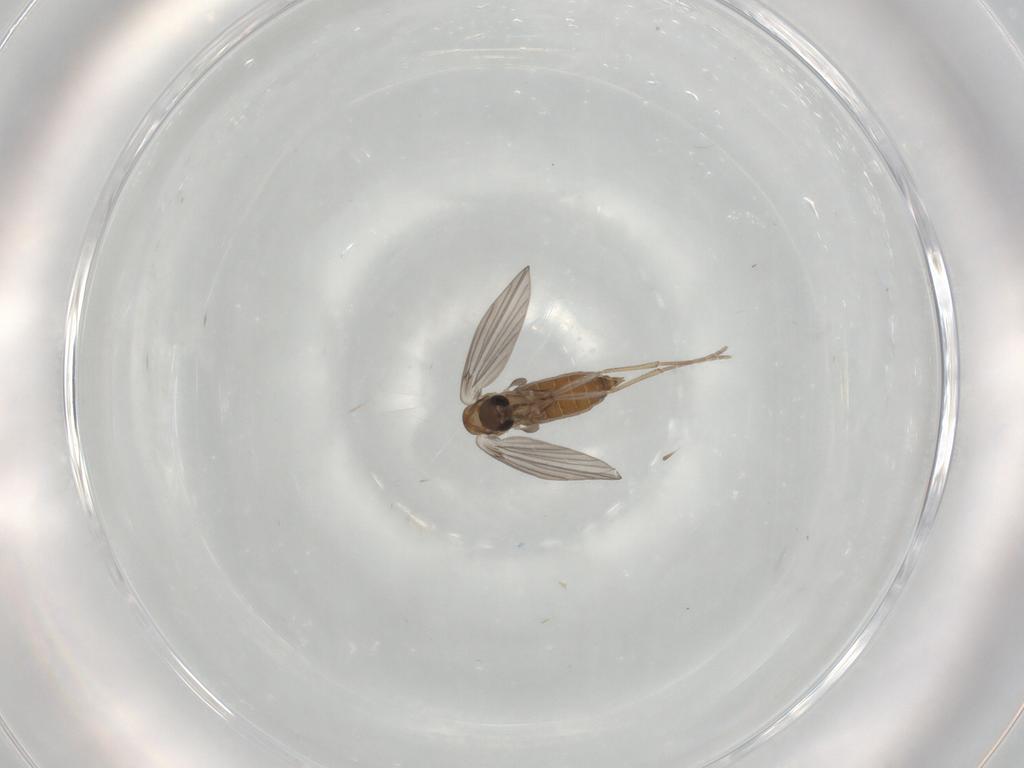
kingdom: Animalia
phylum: Arthropoda
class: Insecta
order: Diptera
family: Psychodidae
